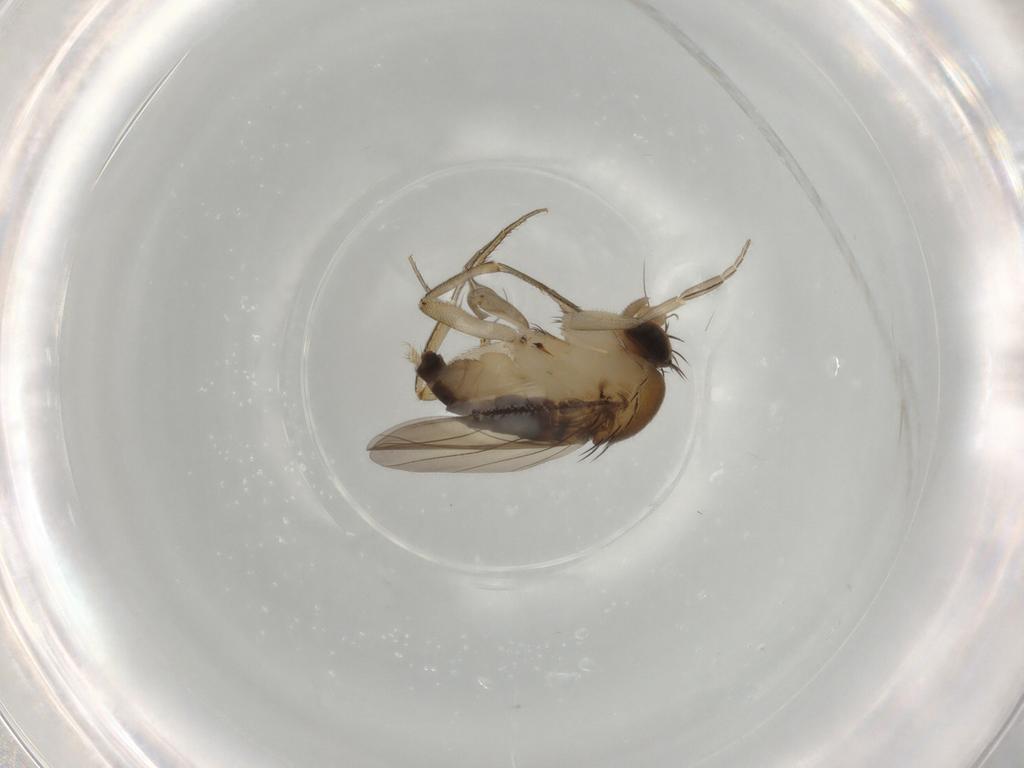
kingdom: Animalia
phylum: Arthropoda
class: Insecta
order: Diptera
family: Phoridae
